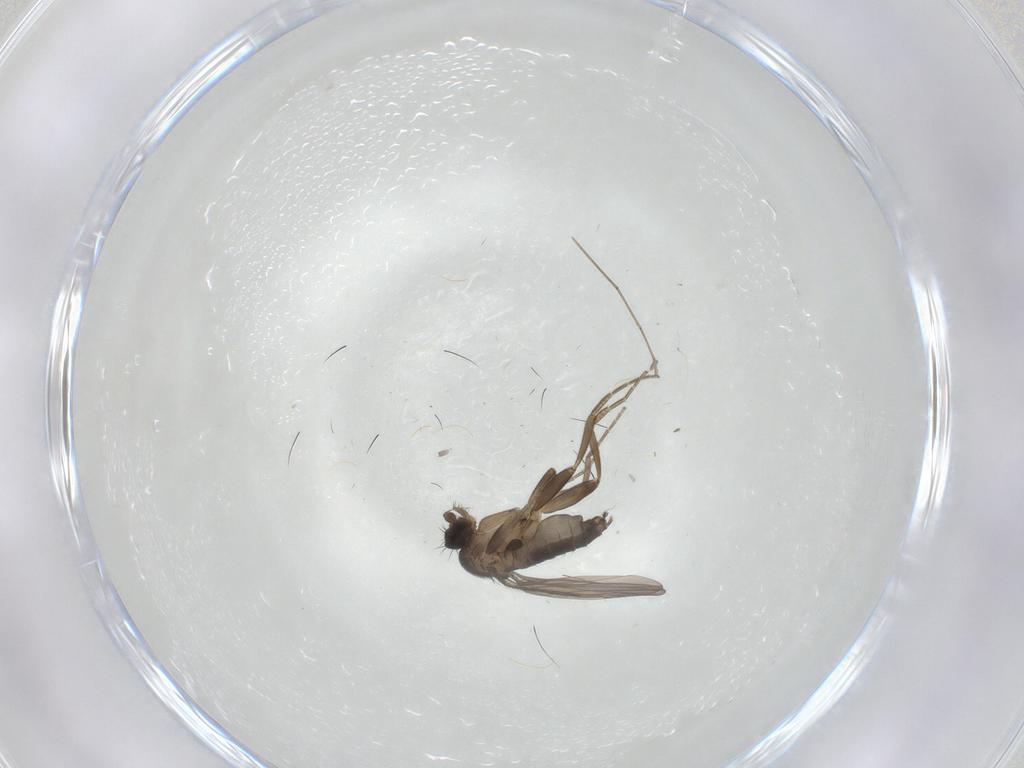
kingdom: Animalia
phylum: Arthropoda
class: Insecta
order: Diptera
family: Phoridae
